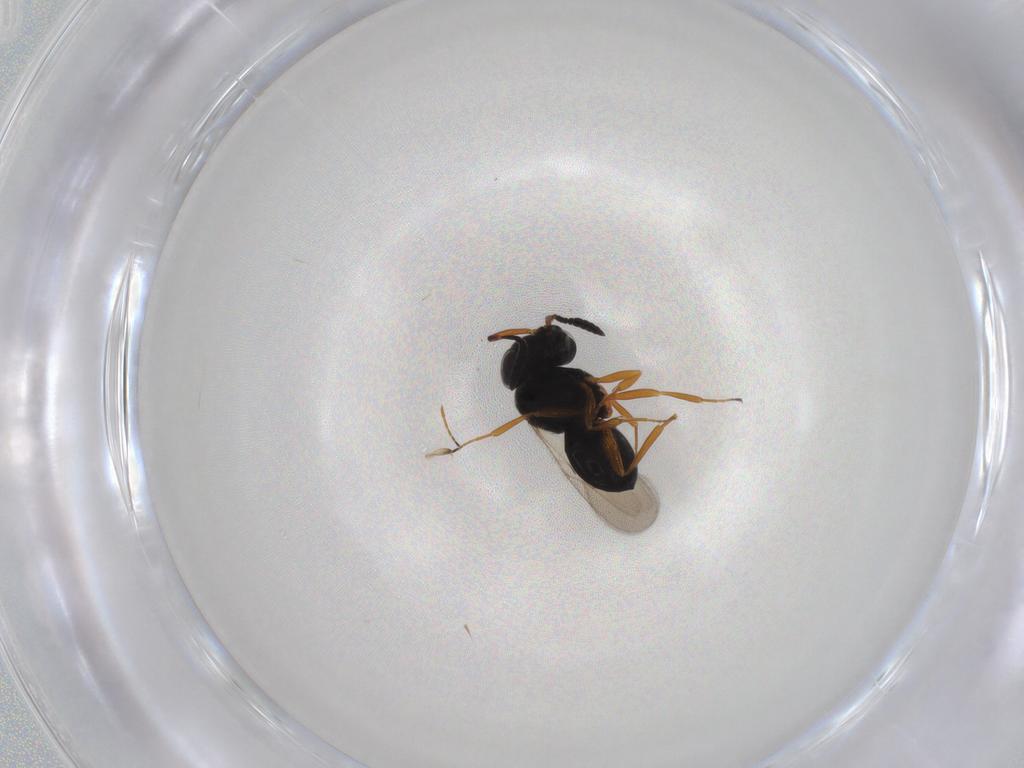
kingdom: Animalia
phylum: Arthropoda
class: Insecta
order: Hymenoptera
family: Scelionidae
